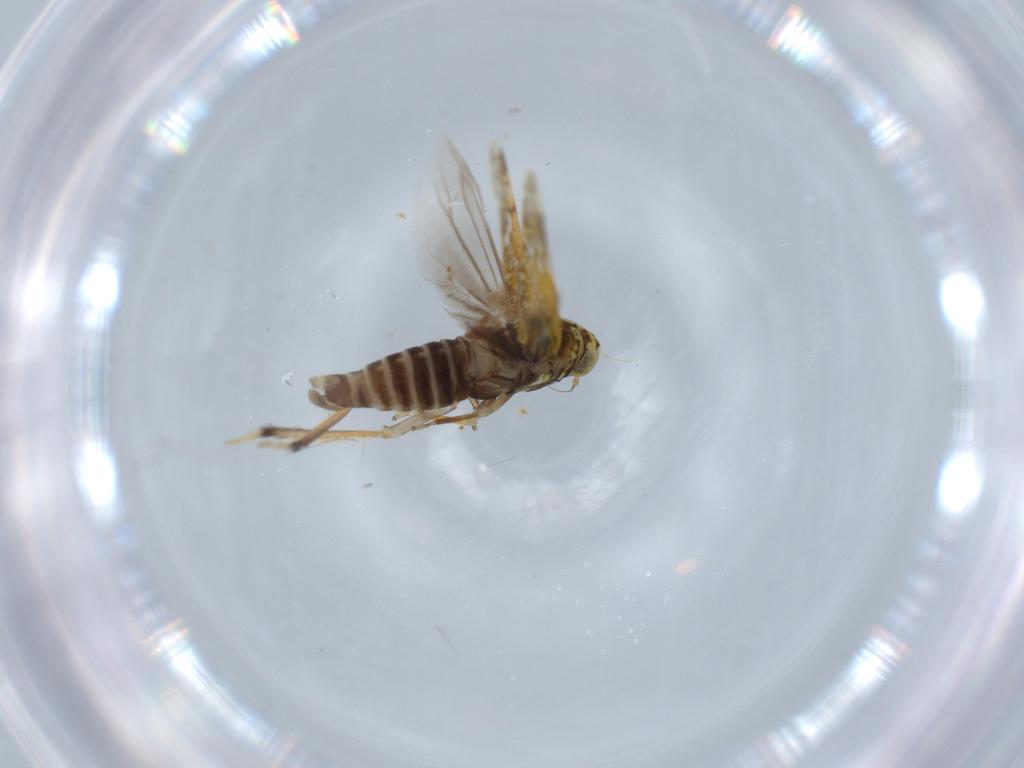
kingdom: Animalia
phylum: Arthropoda
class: Insecta
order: Hemiptera
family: Cicadellidae
